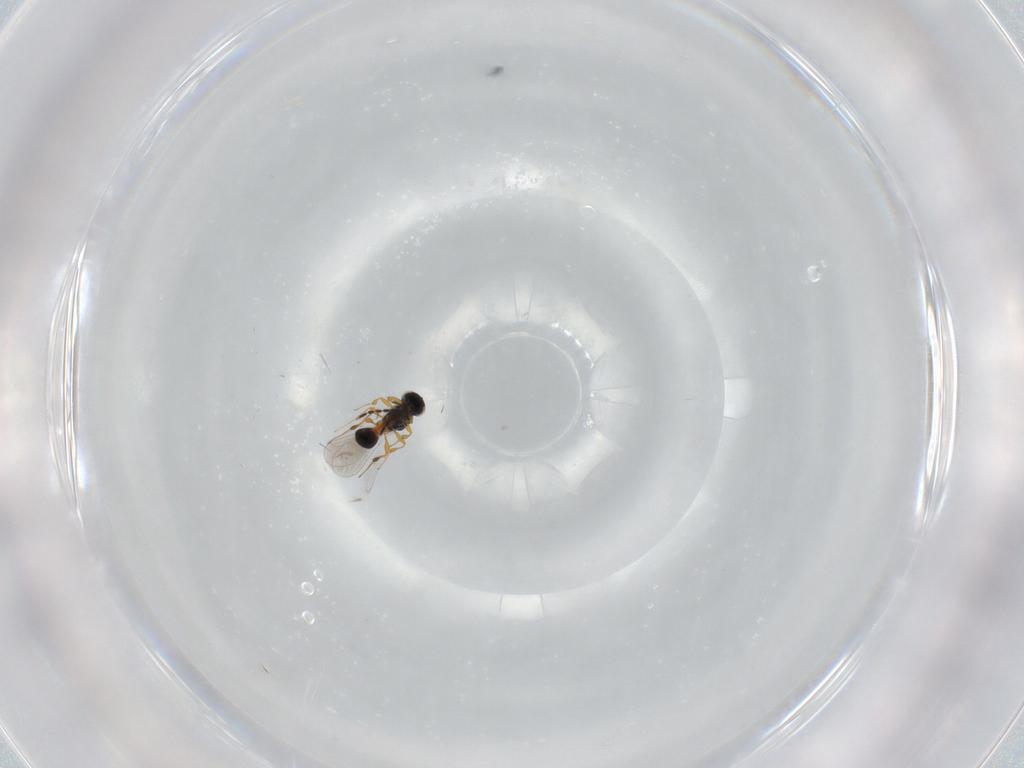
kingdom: Animalia
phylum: Arthropoda
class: Insecta
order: Hymenoptera
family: Platygastridae
